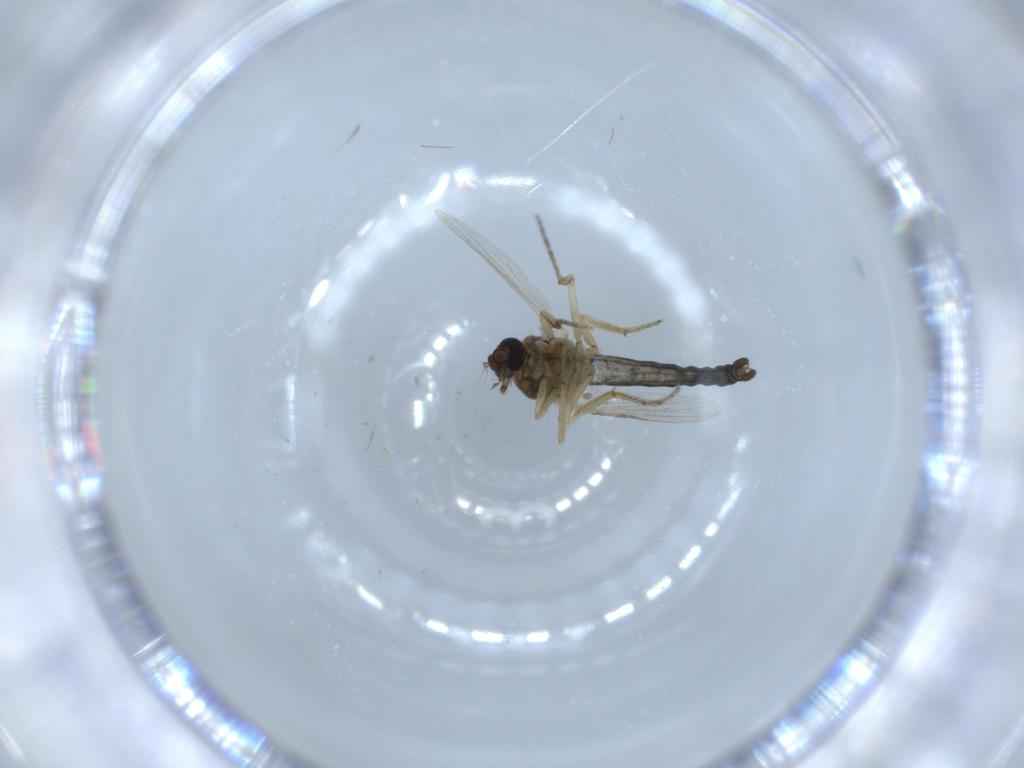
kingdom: Animalia
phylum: Arthropoda
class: Insecta
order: Diptera
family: Ceratopogonidae
